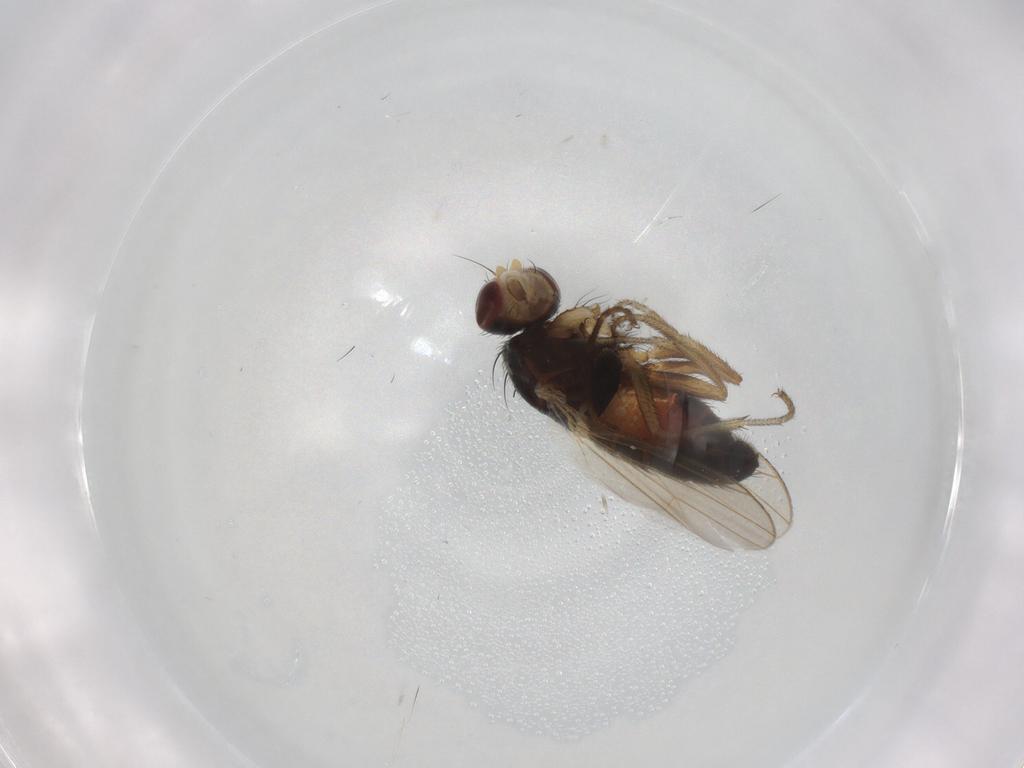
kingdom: Animalia
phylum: Arthropoda
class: Insecta
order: Diptera
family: Heleomyzidae
